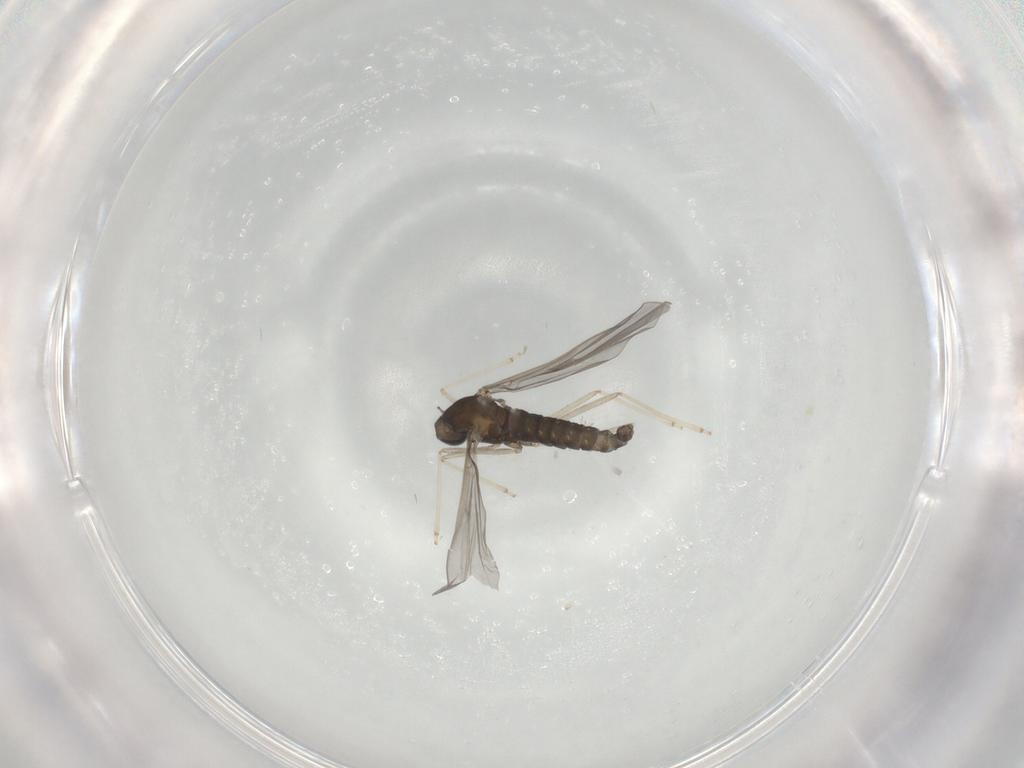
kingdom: Animalia
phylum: Arthropoda
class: Insecta
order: Diptera
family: Cecidomyiidae
